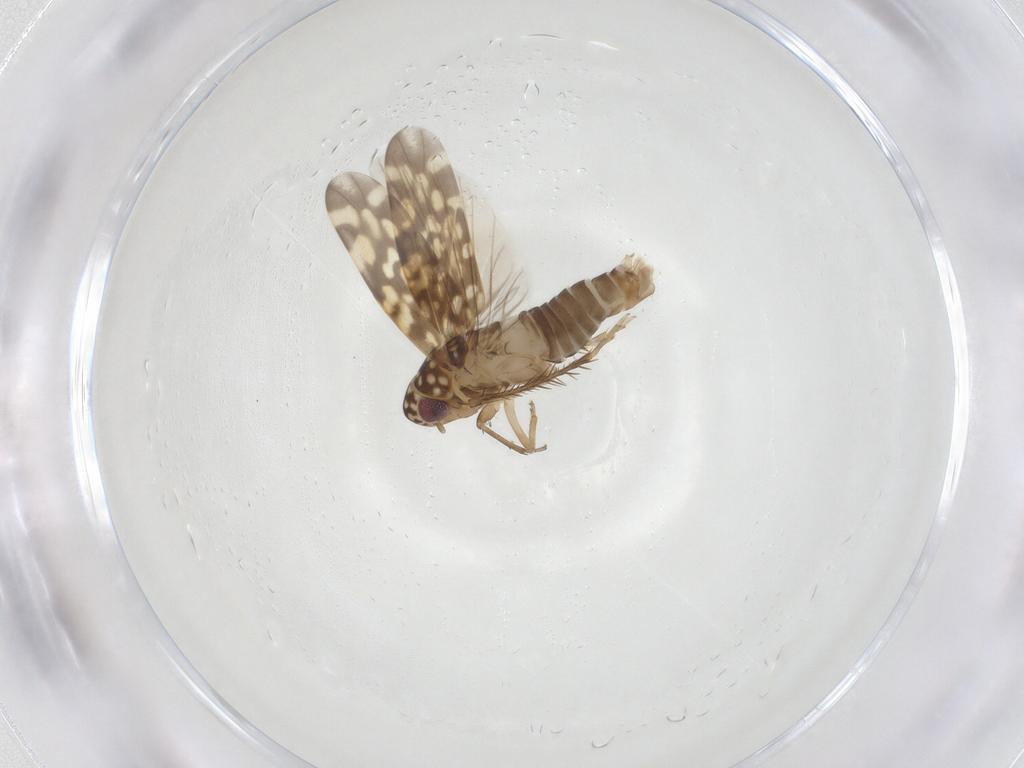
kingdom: Animalia
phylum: Arthropoda
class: Insecta
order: Hemiptera
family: Cicadellidae
